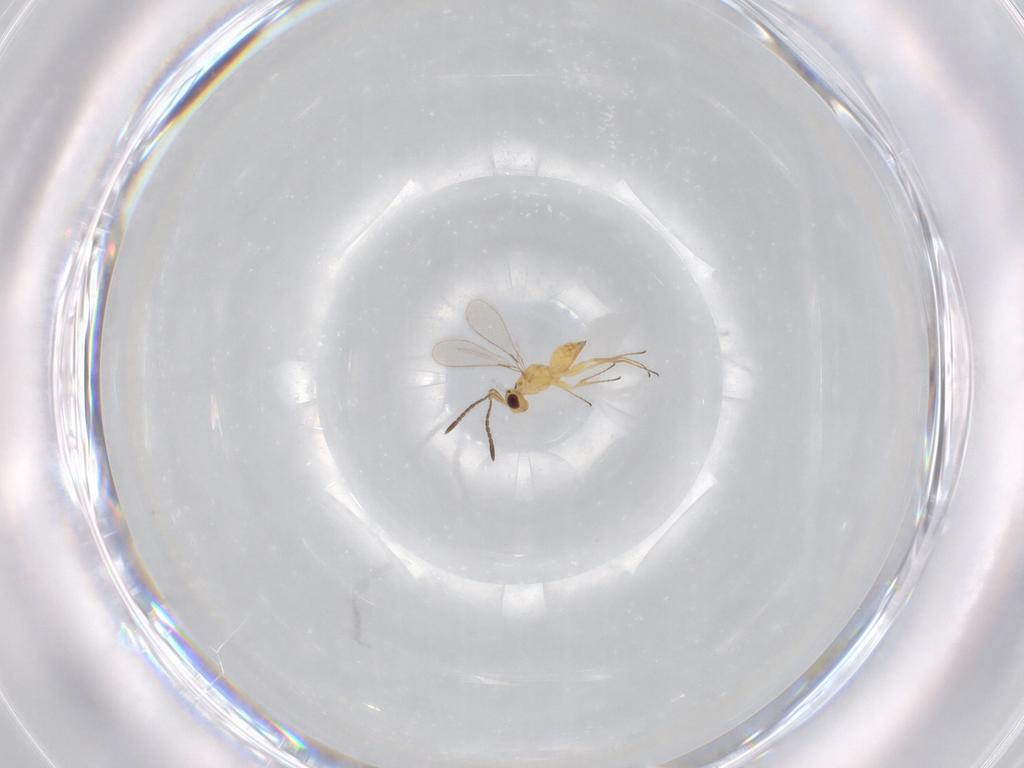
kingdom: Animalia
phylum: Arthropoda
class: Insecta
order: Hymenoptera
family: Mymaridae
